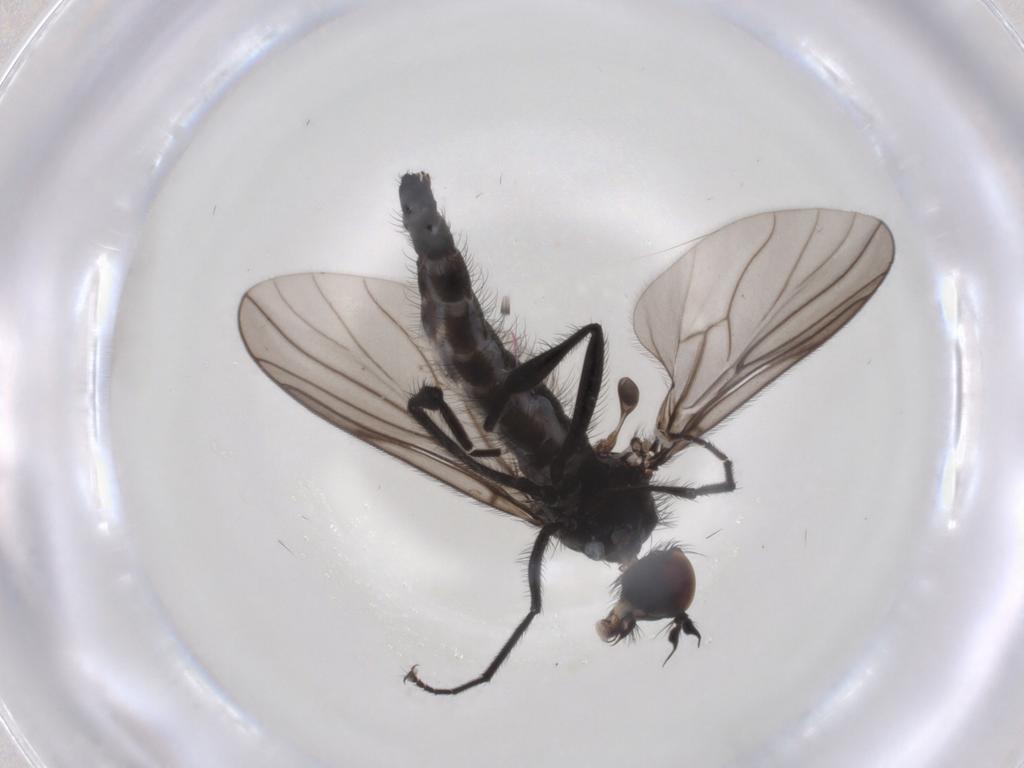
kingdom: Animalia
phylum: Arthropoda
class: Insecta
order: Diptera
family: Hybotidae
